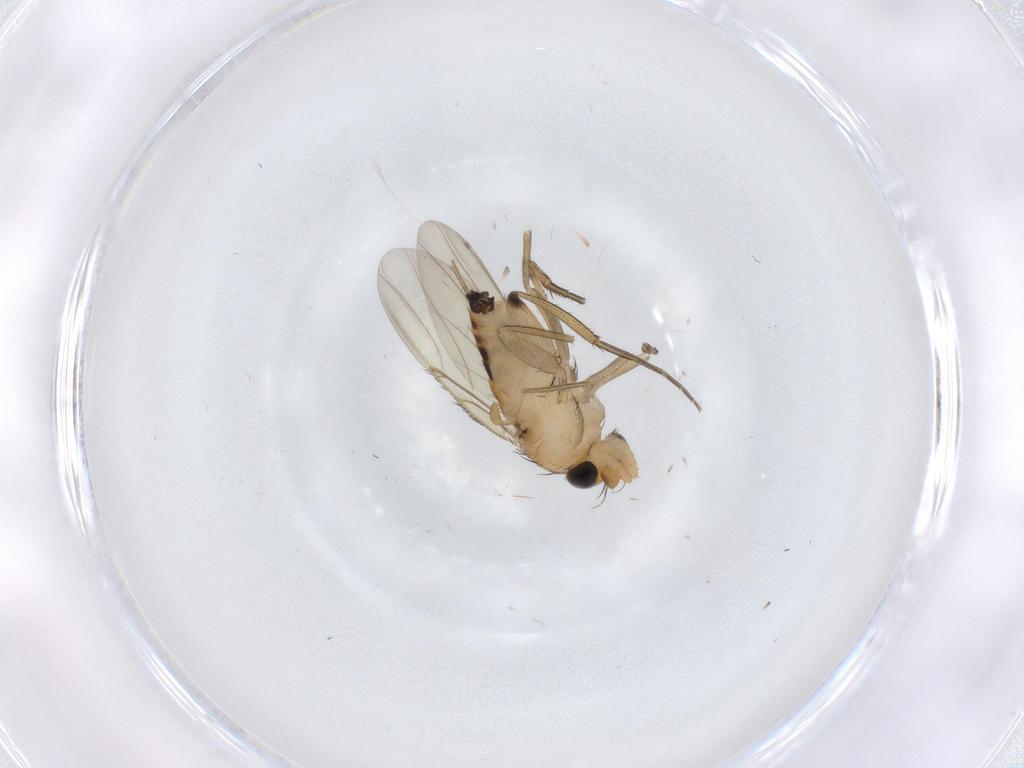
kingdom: Animalia
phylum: Arthropoda
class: Insecta
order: Diptera
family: Phoridae
